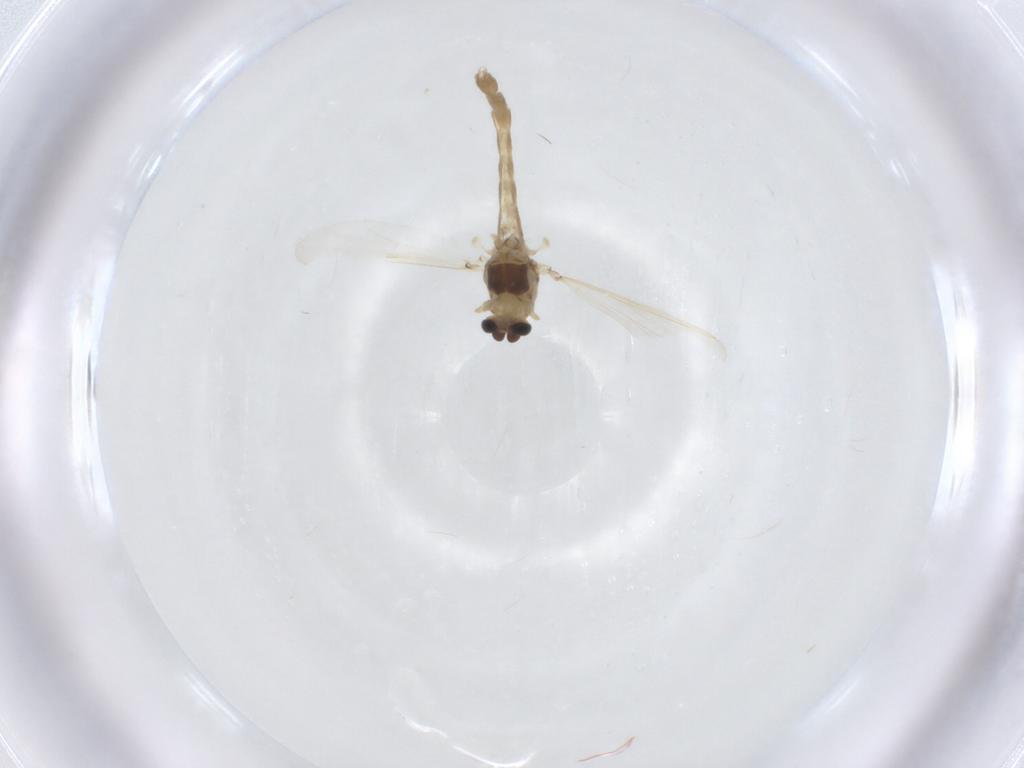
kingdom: Animalia
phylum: Arthropoda
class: Insecta
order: Diptera
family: Chironomidae
